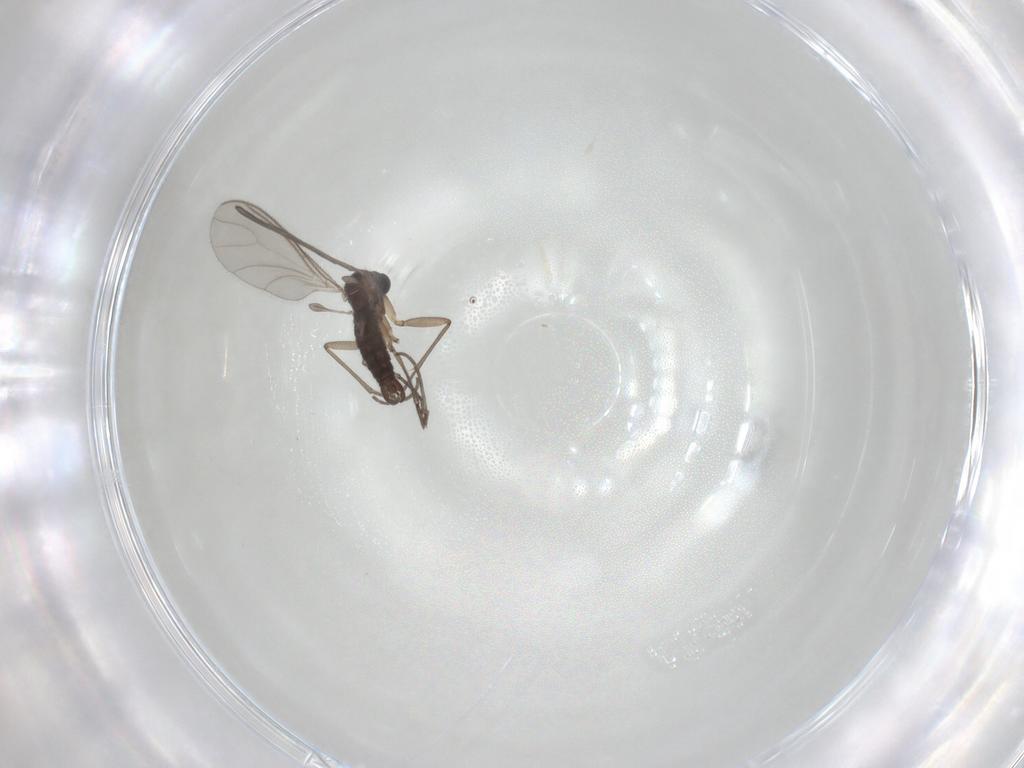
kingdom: Animalia
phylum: Arthropoda
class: Insecta
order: Diptera
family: Sciaridae
